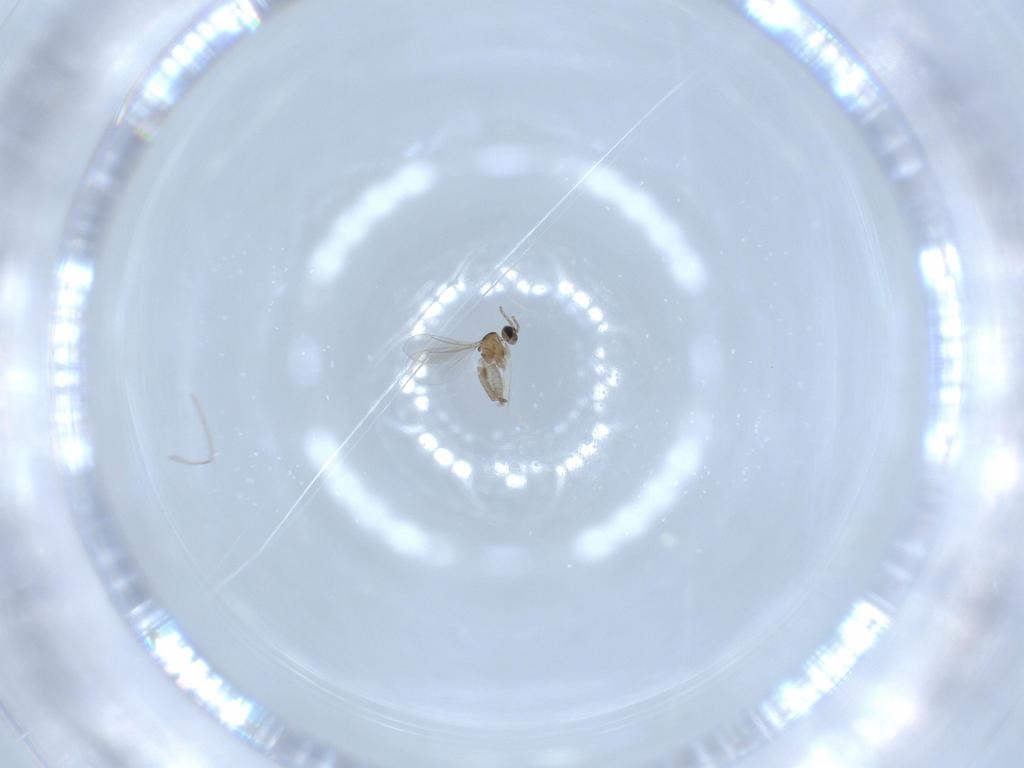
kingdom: Animalia
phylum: Arthropoda
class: Insecta
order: Diptera
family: Cecidomyiidae
